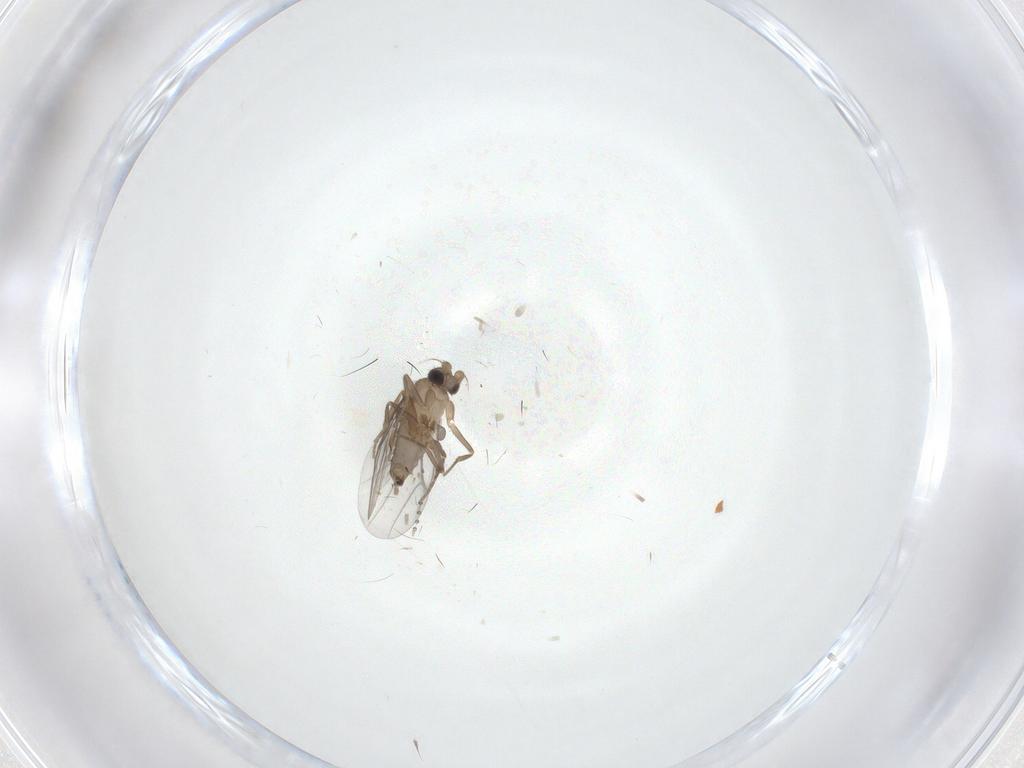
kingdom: Animalia
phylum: Arthropoda
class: Insecta
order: Diptera
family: Cecidomyiidae
